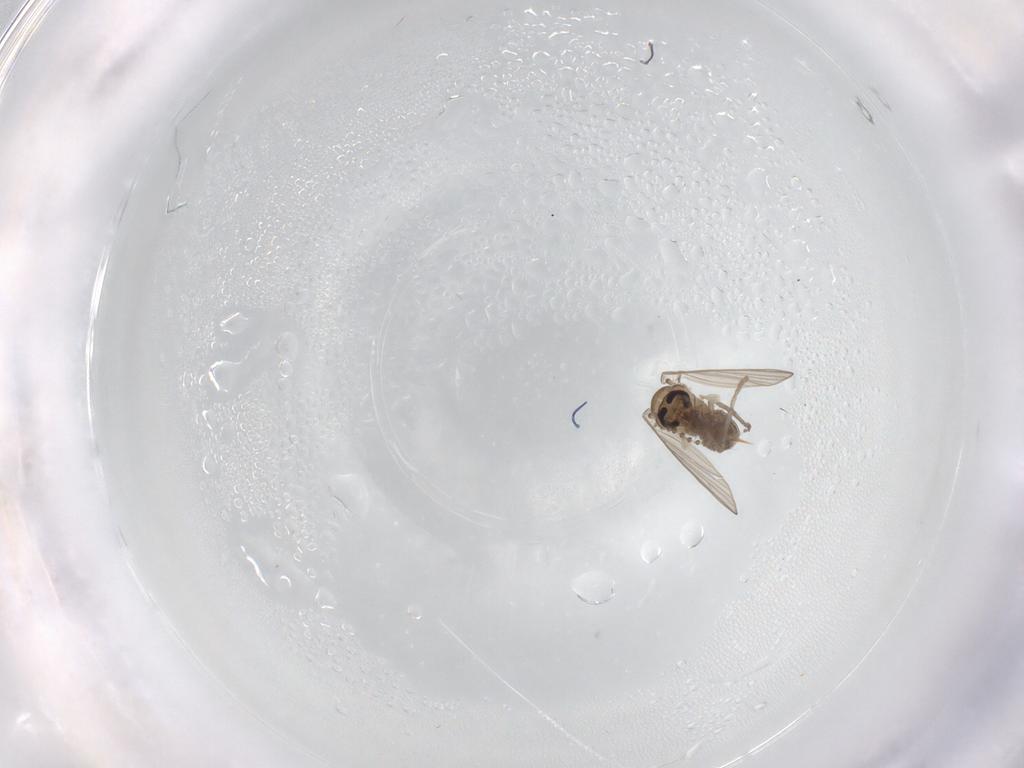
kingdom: Animalia
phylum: Arthropoda
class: Insecta
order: Diptera
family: Psychodidae
